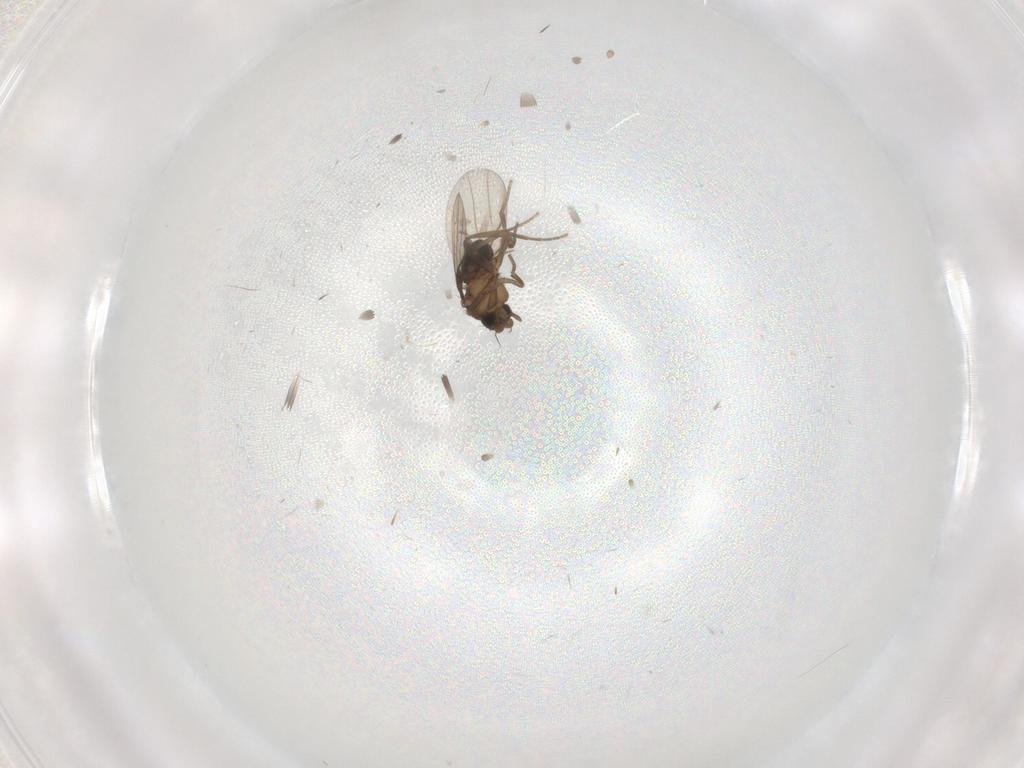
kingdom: Animalia
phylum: Arthropoda
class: Insecta
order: Diptera
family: Phoridae
